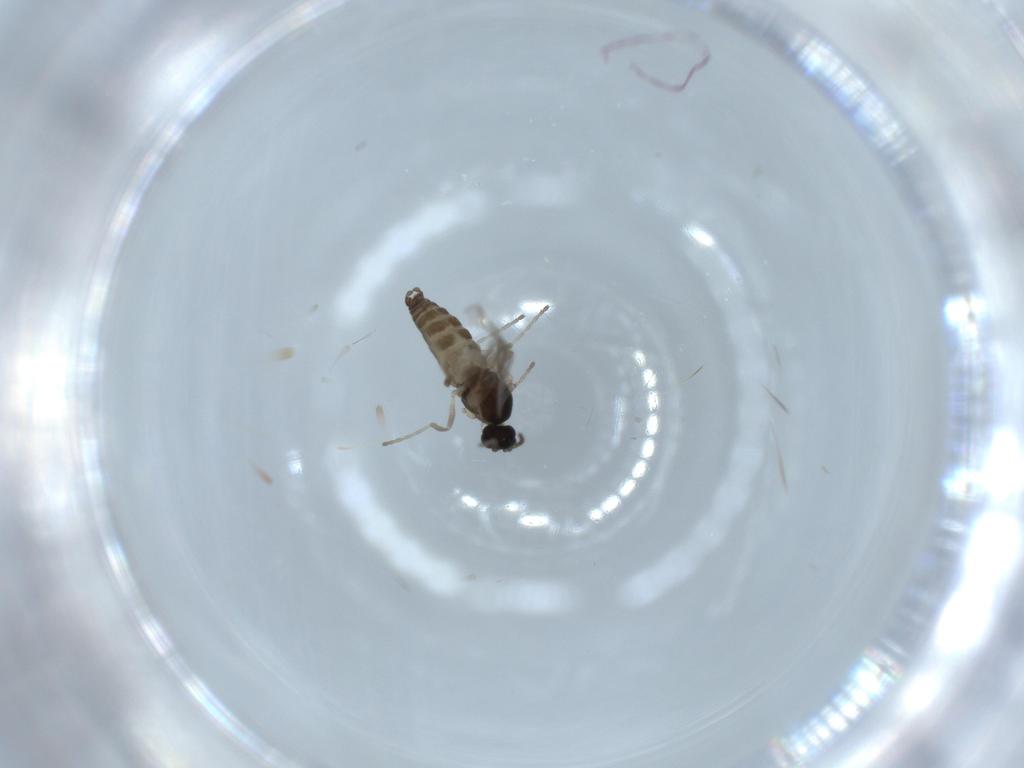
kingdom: Animalia
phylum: Arthropoda
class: Insecta
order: Diptera
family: Cecidomyiidae
